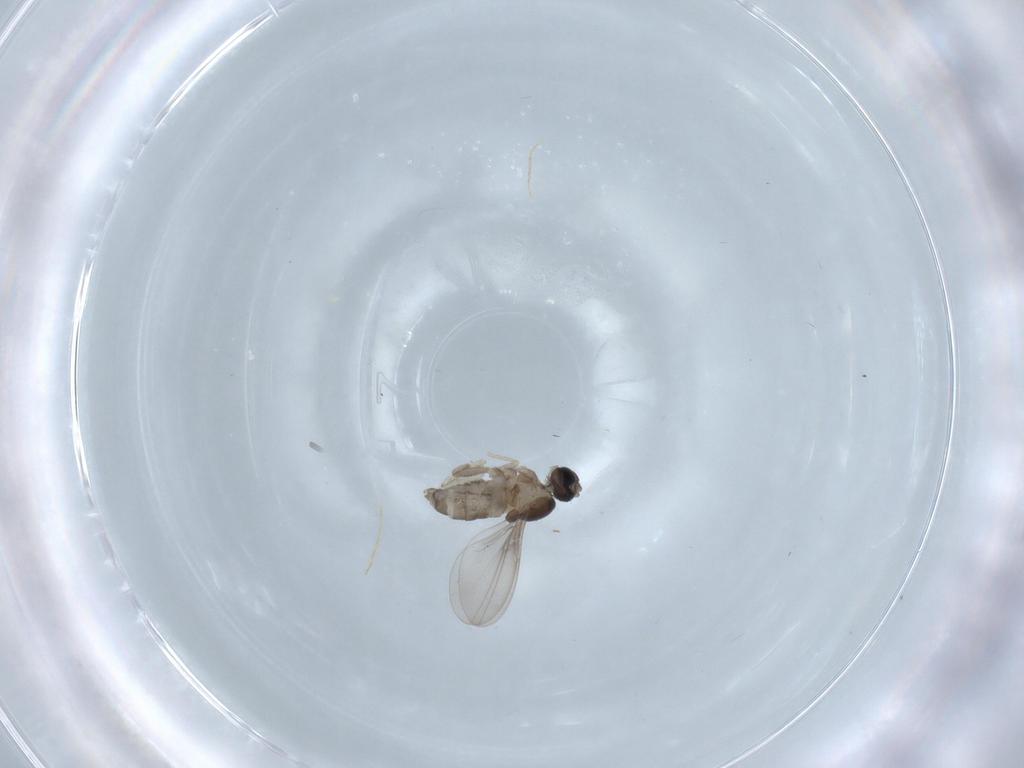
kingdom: Animalia
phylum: Arthropoda
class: Insecta
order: Diptera
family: Cecidomyiidae
